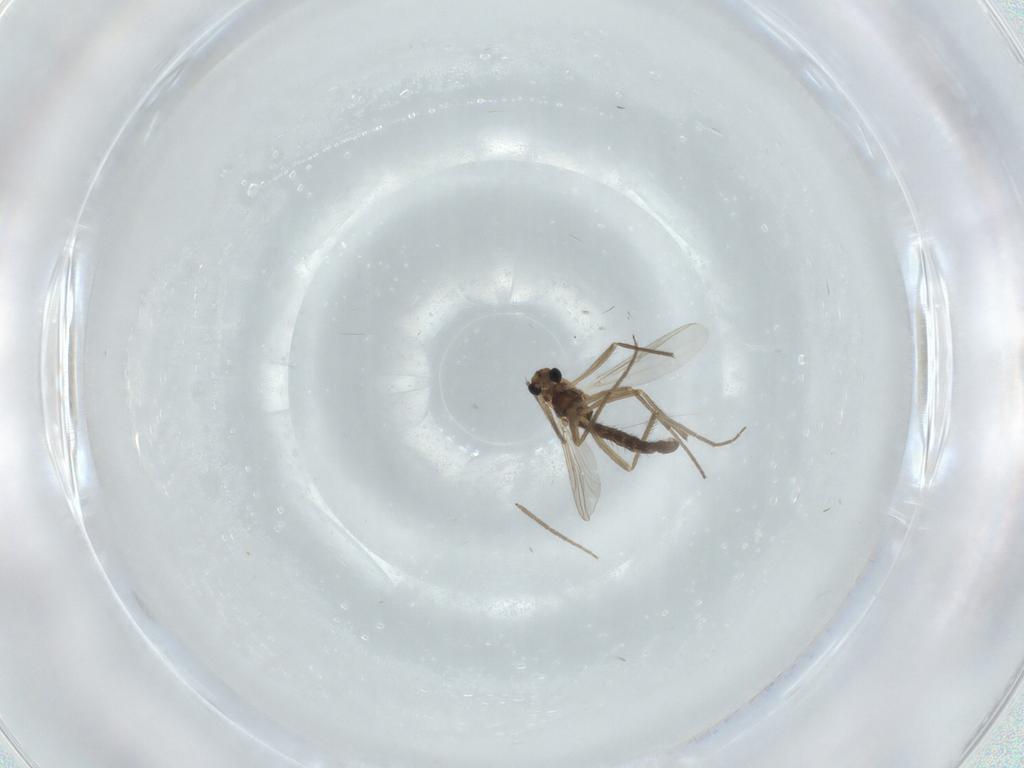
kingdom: Animalia
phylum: Arthropoda
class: Insecta
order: Diptera
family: Chironomidae
